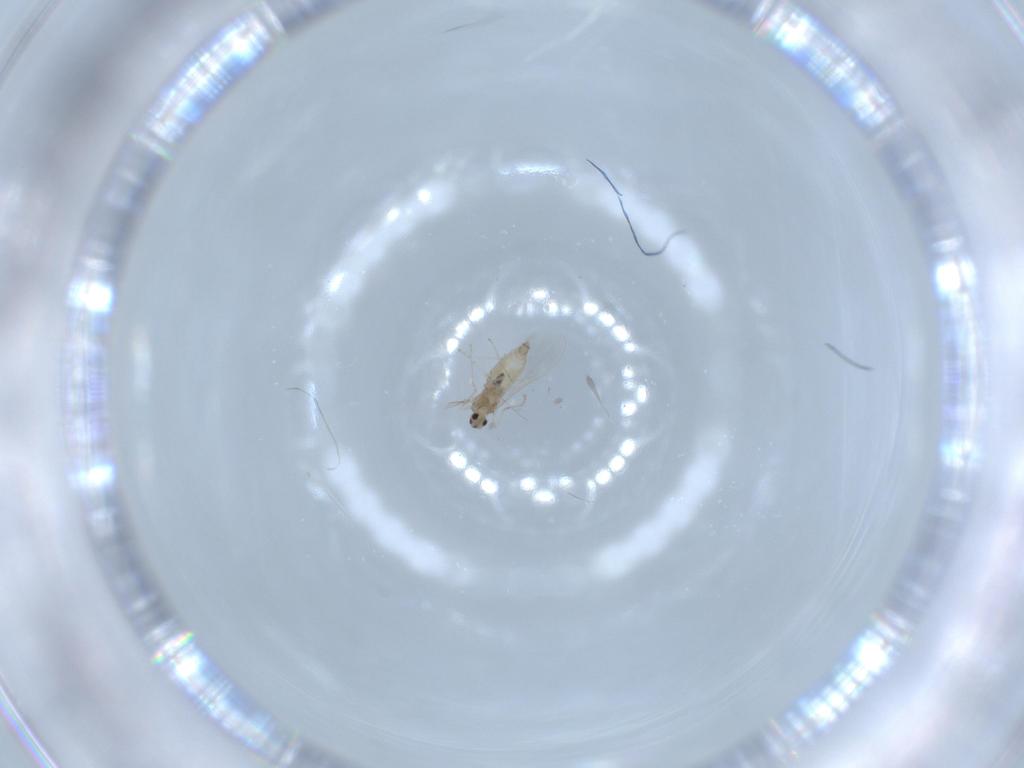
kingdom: Animalia
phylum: Arthropoda
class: Insecta
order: Diptera
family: Cecidomyiidae
